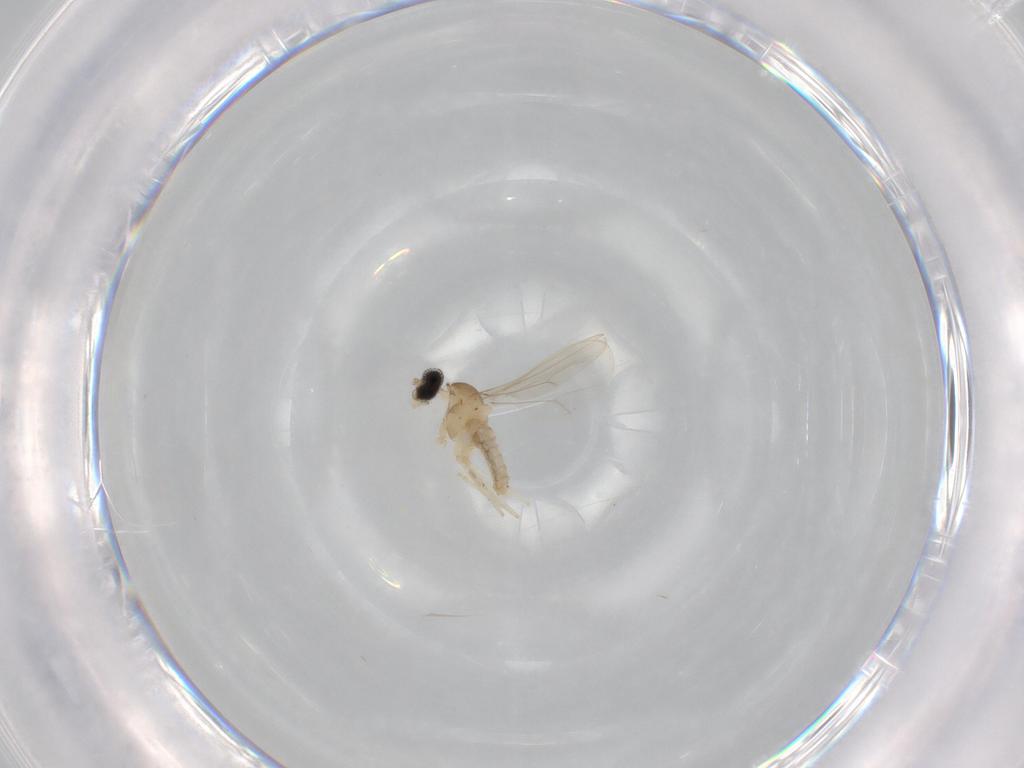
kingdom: Animalia
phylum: Arthropoda
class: Insecta
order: Diptera
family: Cecidomyiidae
